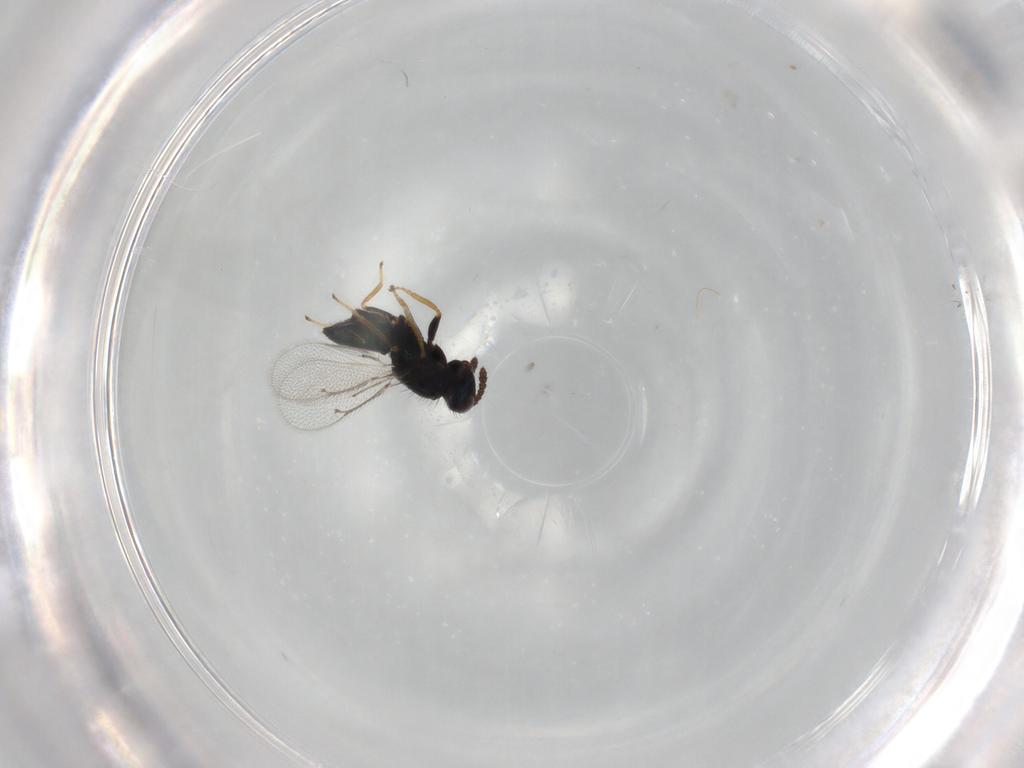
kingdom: Animalia
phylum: Arthropoda
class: Insecta
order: Hymenoptera
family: Eulophidae
